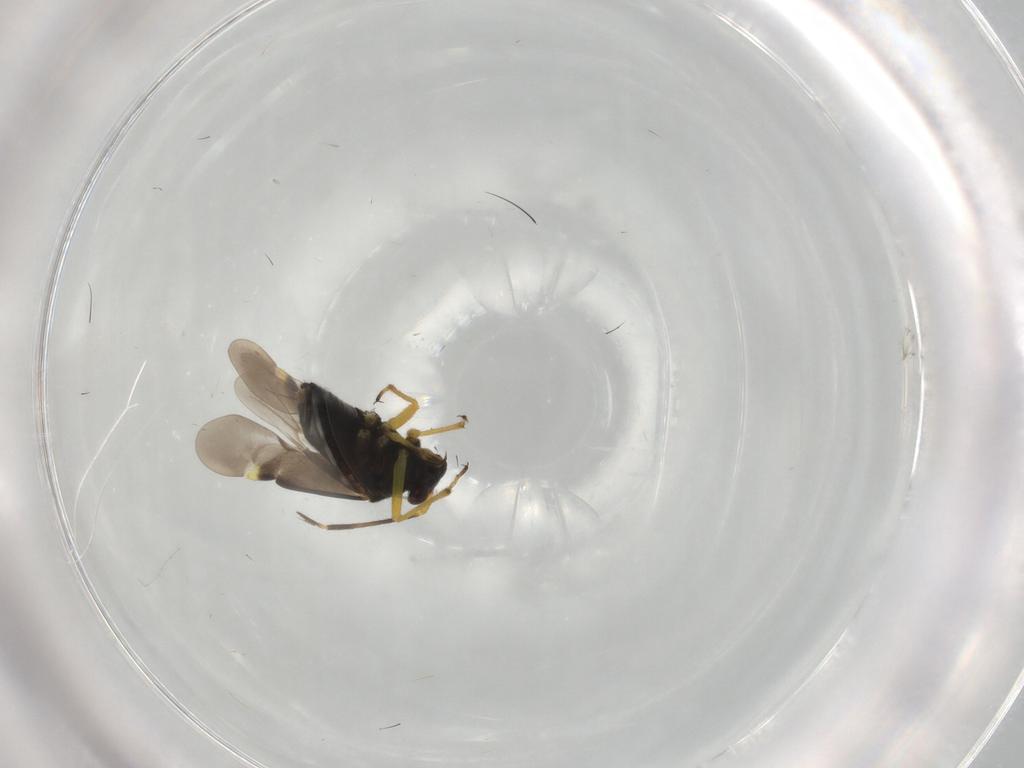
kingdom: Animalia
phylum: Arthropoda
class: Insecta
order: Hemiptera
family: Miridae
